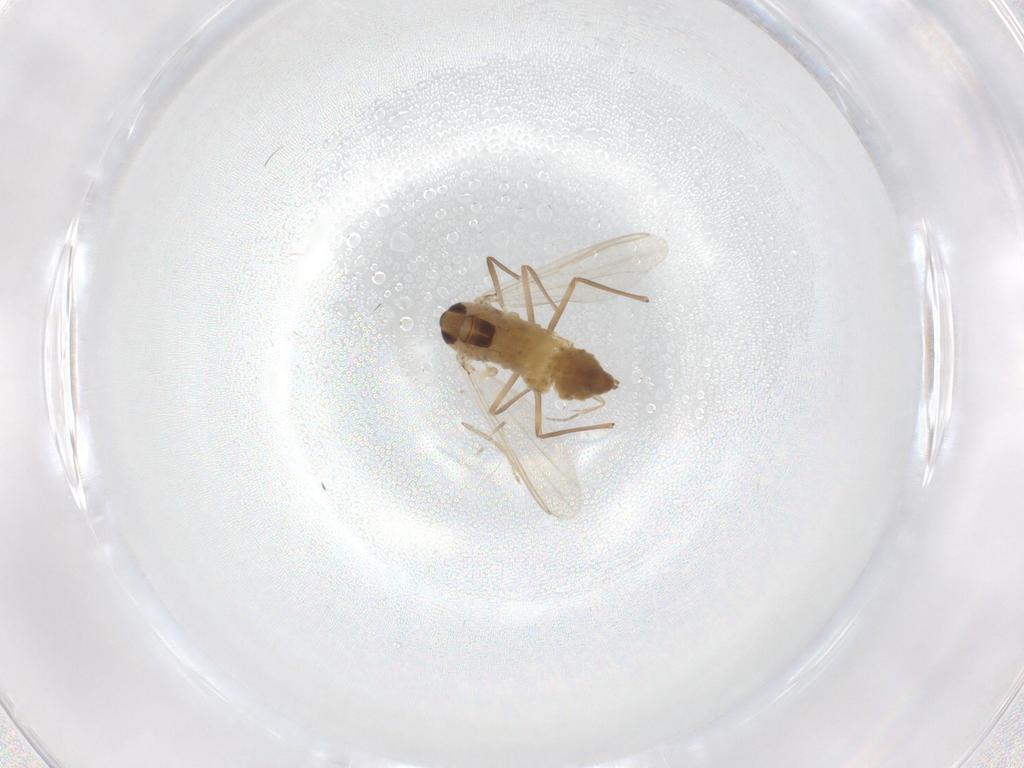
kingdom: Animalia
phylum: Arthropoda
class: Insecta
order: Diptera
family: Chironomidae
